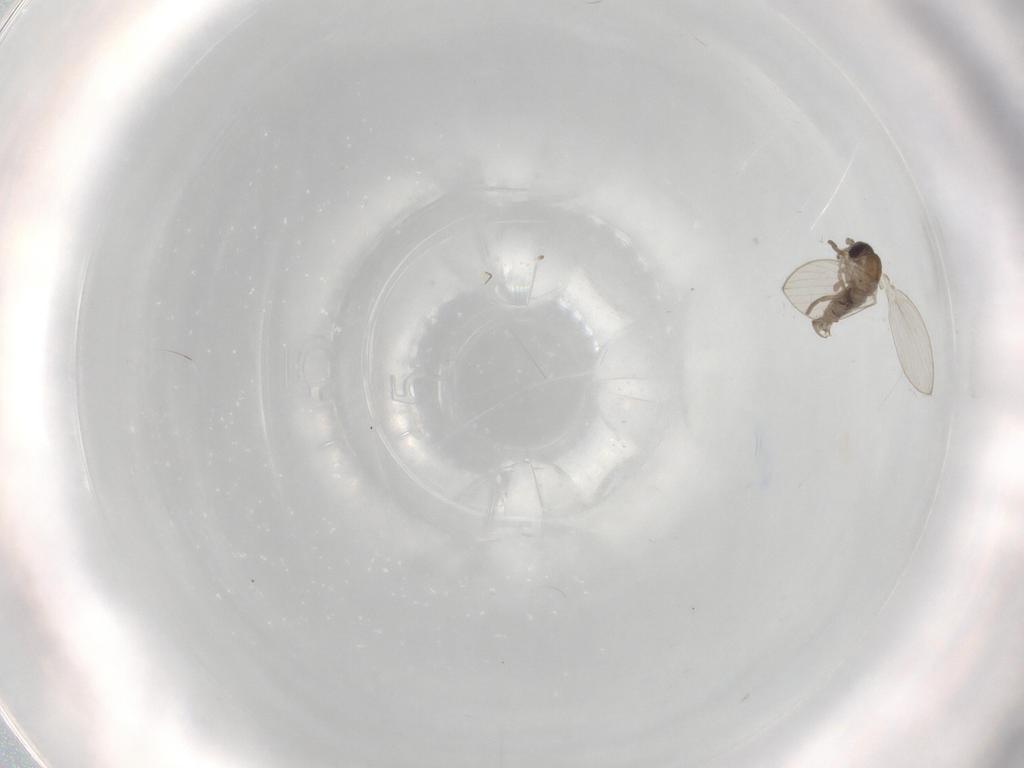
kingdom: Animalia
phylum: Arthropoda
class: Insecta
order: Diptera
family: Psychodidae
